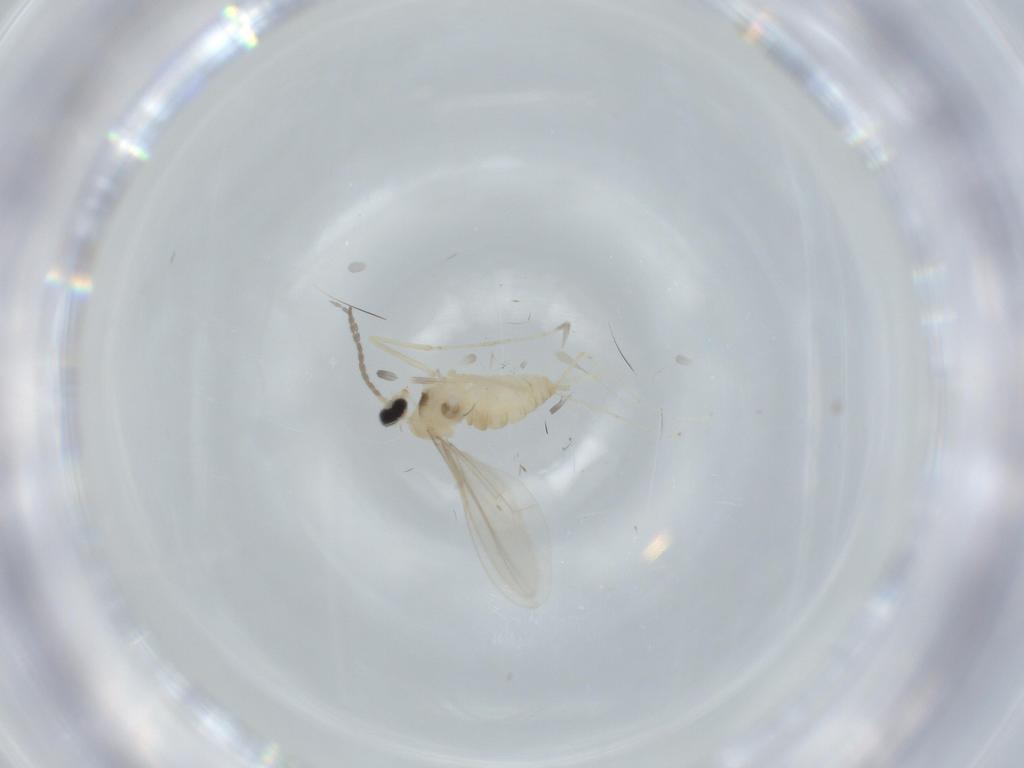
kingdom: Animalia
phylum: Arthropoda
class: Insecta
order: Diptera
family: Cecidomyiidae
